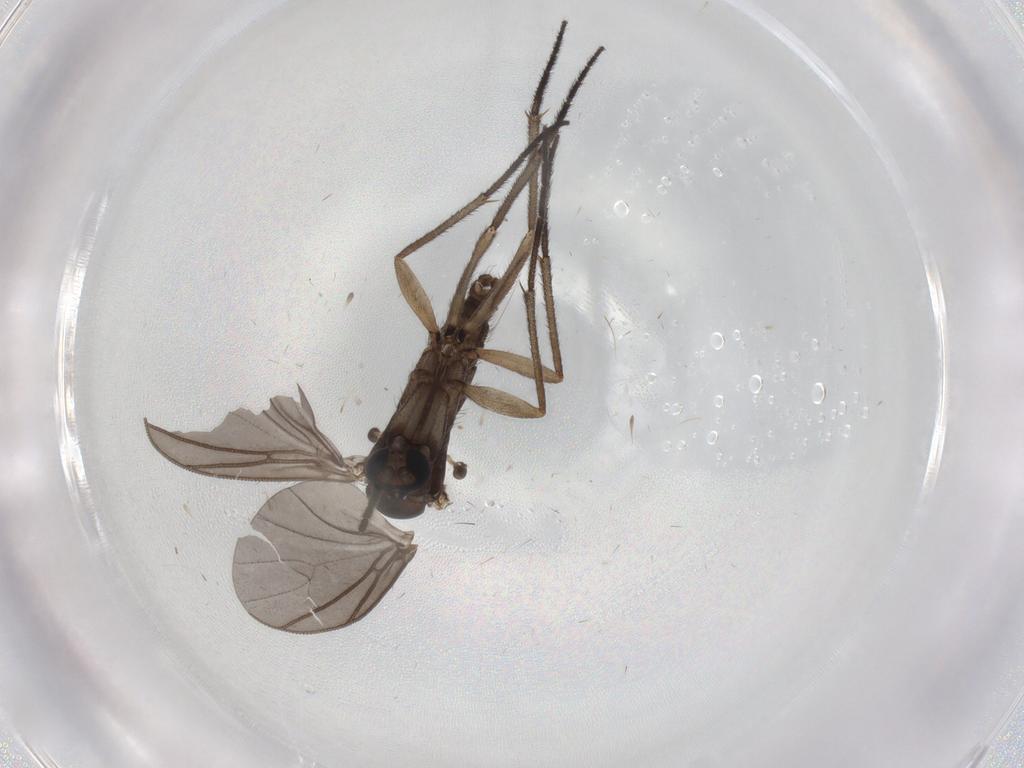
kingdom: Animalia
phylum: Arthropoda
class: Insecta
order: Diptera
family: Sciaridae
